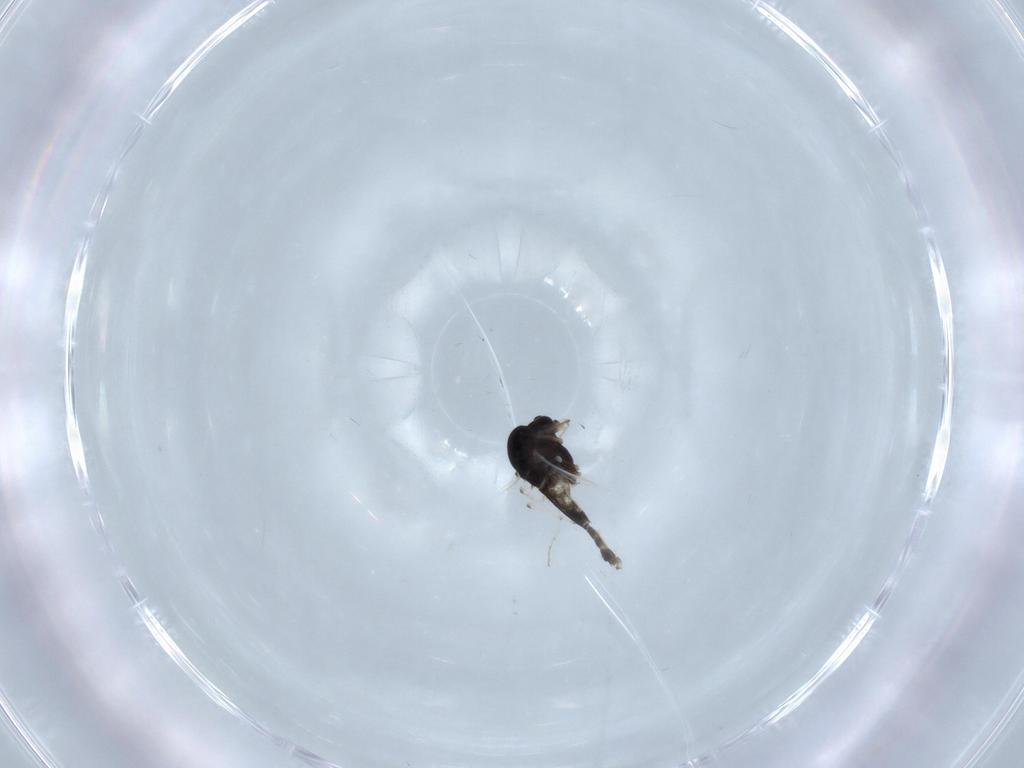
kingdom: Animalia
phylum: Arthropoda
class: Insecta
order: Diptera
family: Chironomidae
